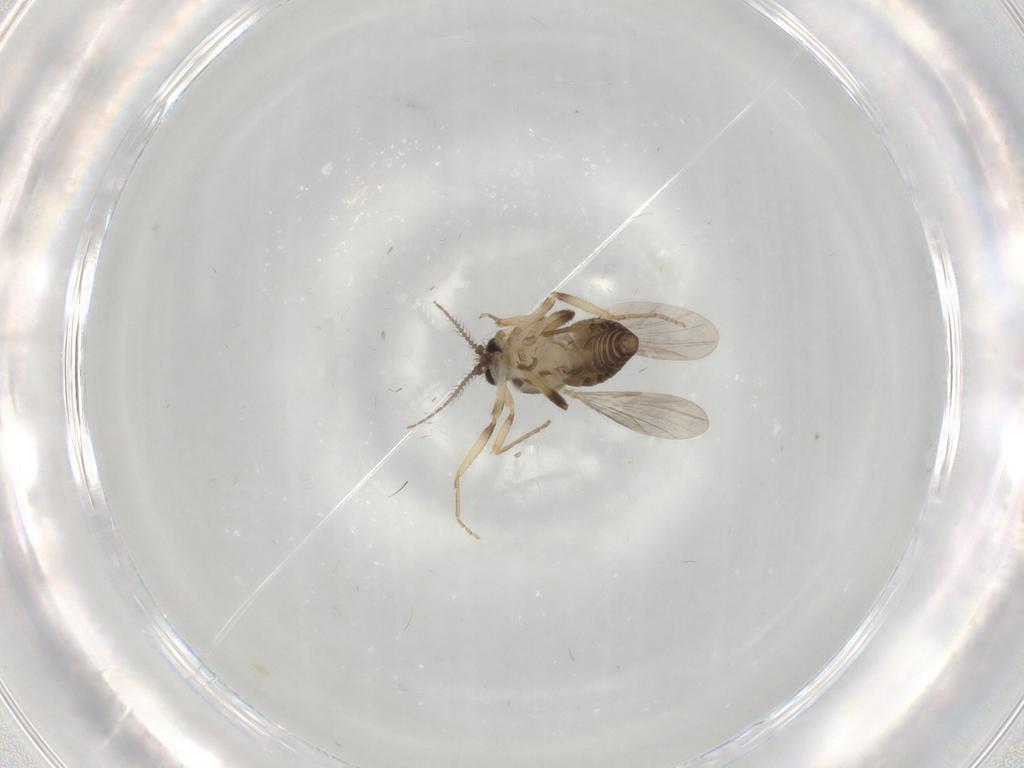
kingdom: Animalia
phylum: Arthropoda
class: Insecta
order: Diptera
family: Ceratopogonidae
